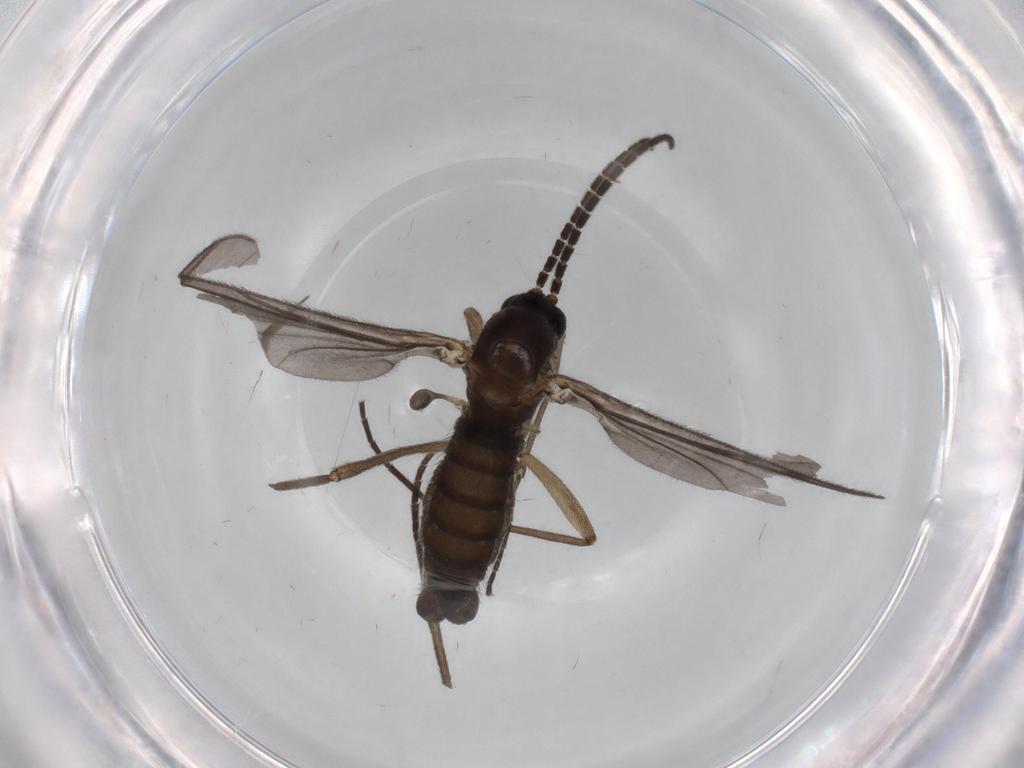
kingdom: Animalia
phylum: Arthropoda
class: Insecta
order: Diptera
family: Sciaridae
